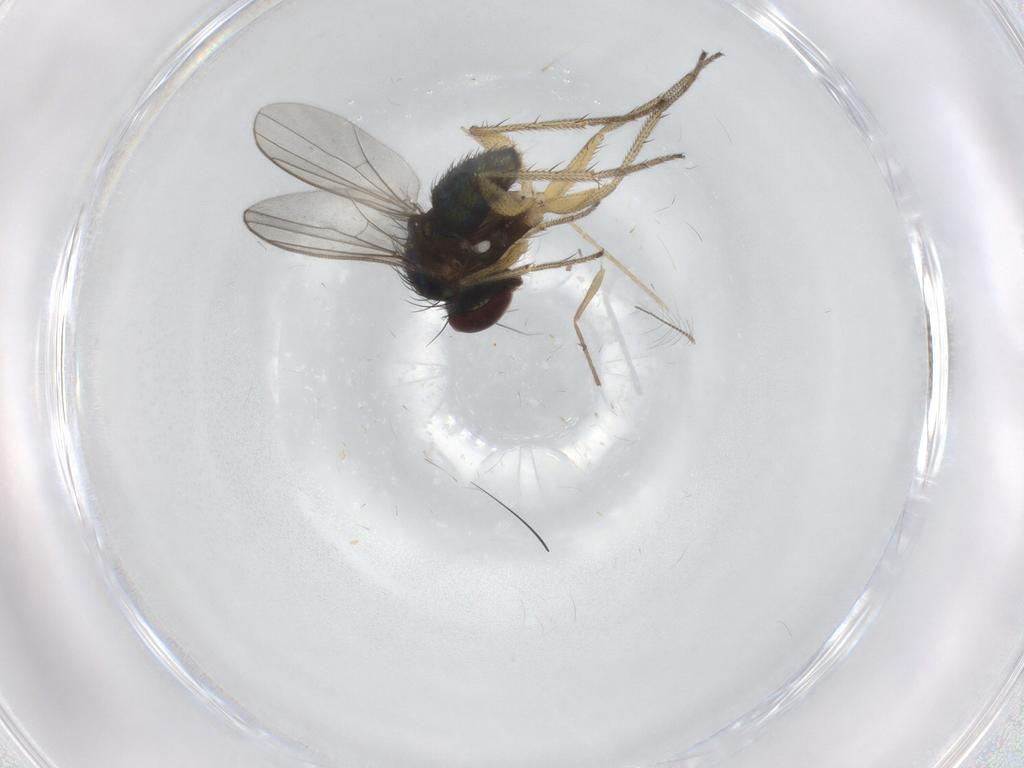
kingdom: Animalia
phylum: Arthropoda
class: Insecta
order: Diptera
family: Dolichopodidae
